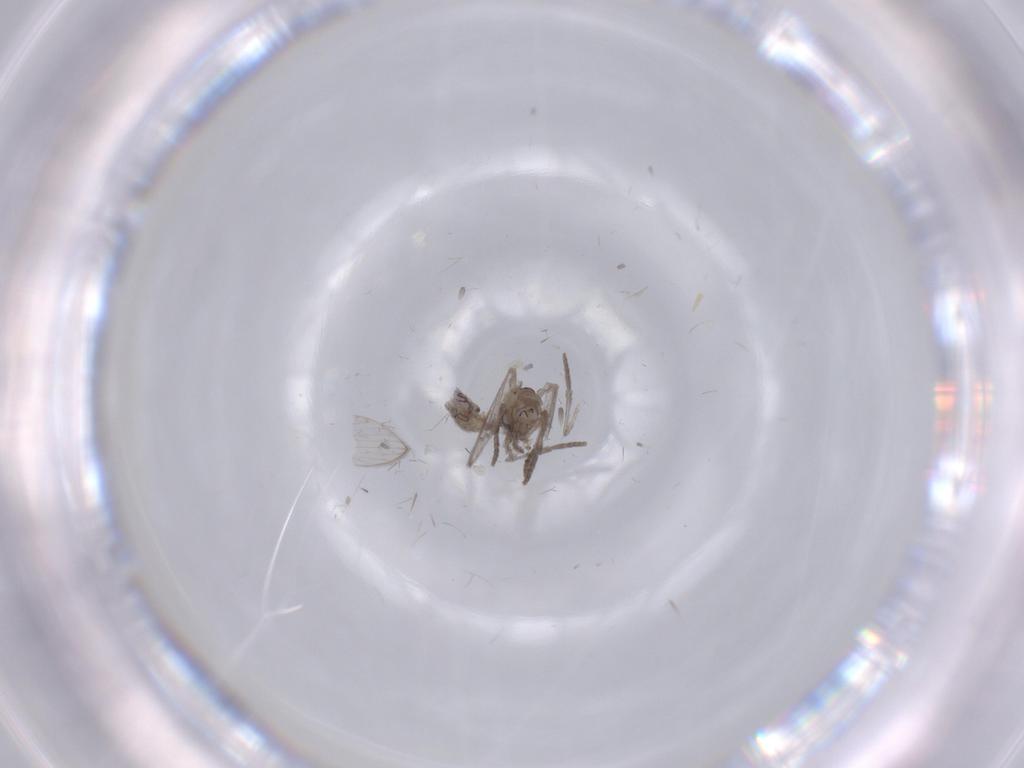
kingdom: Animalia
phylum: Arthropoda
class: Insecta
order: Diptera
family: Psychodidae
